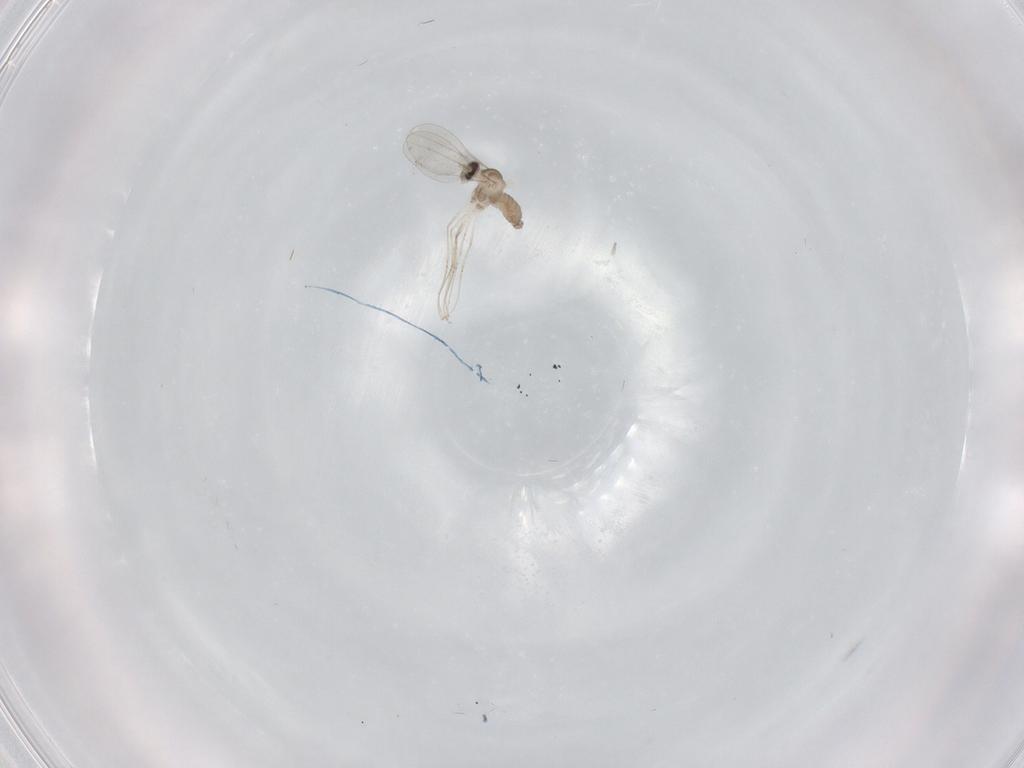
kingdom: Animalia
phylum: Arthropoda
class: Insecta
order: Diptera
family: Cecidomyiidae
